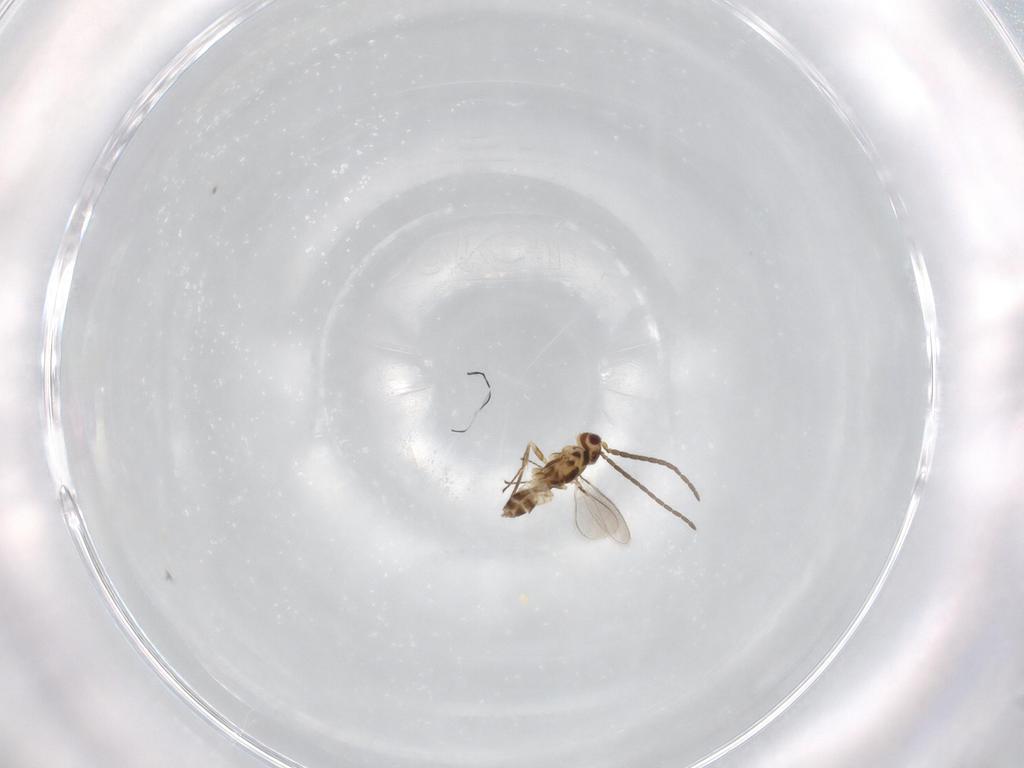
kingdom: Animalia
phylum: Arthropoda
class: Insecta
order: Hymenoptera
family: Mymaridae
